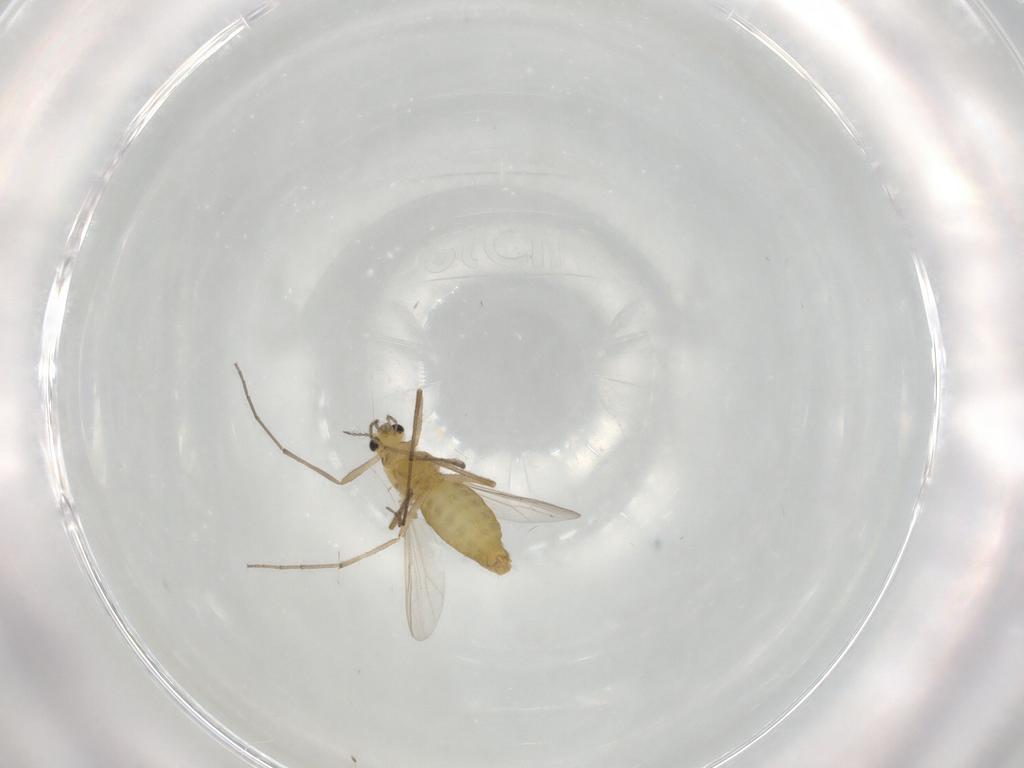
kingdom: Animalia
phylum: Arthropoda
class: Insecta
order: Diptera
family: Chironomidae
